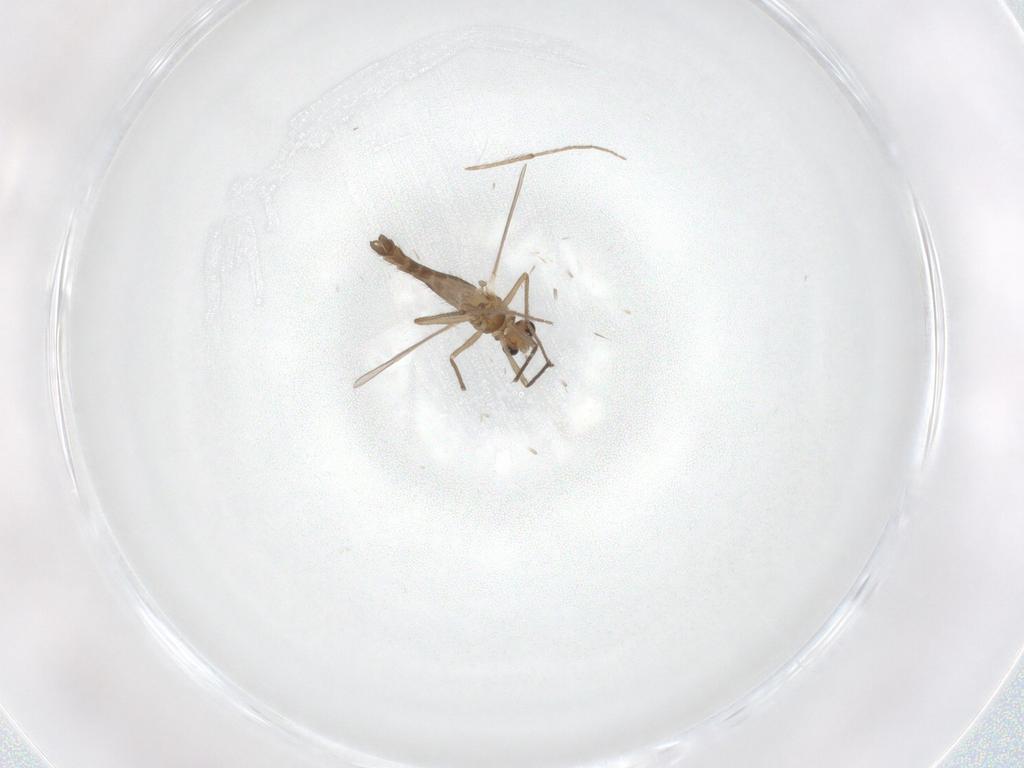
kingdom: Animalia
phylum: Arthropoda
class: Insecta
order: Diptera
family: Chironomidae
